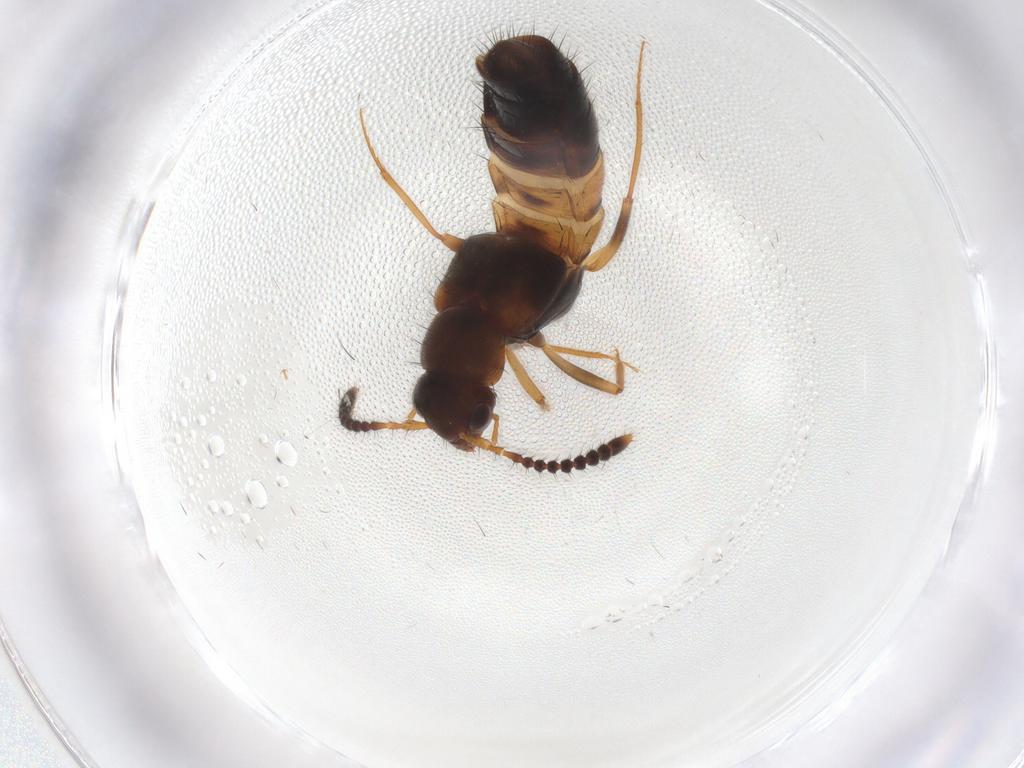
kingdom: Animalia
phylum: Arthropoda
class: Insecta
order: Coleoptera
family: Staphylinidae
